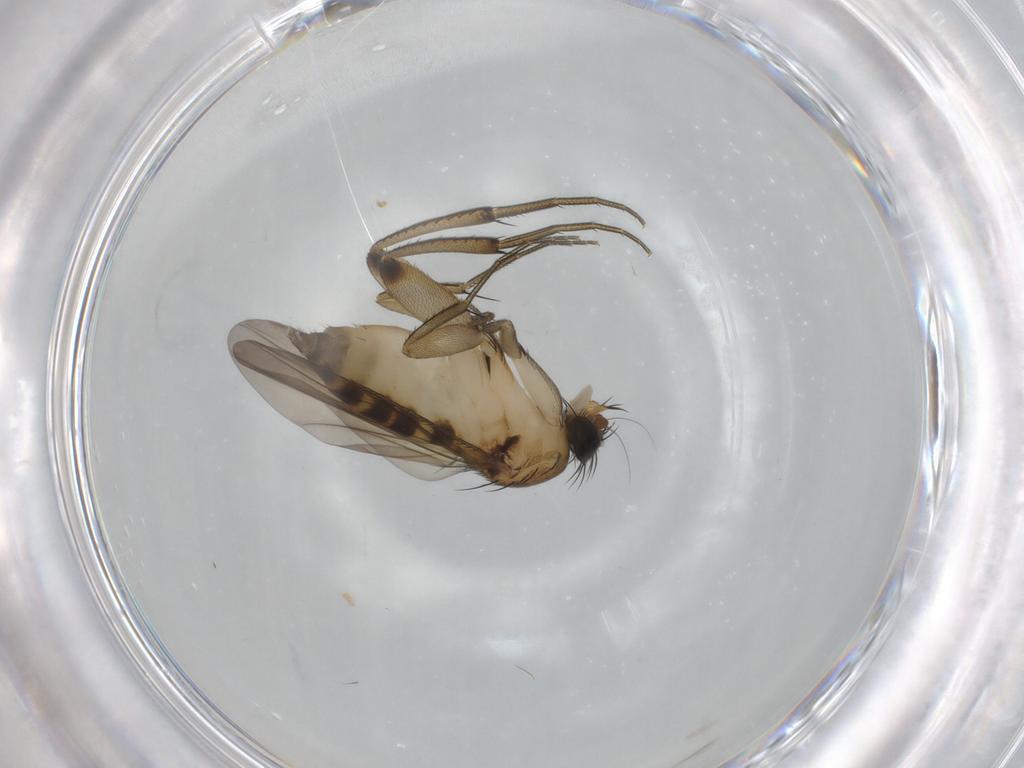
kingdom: Animalia
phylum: Arthropoda
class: Insecta
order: Diptera
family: Phoridae
